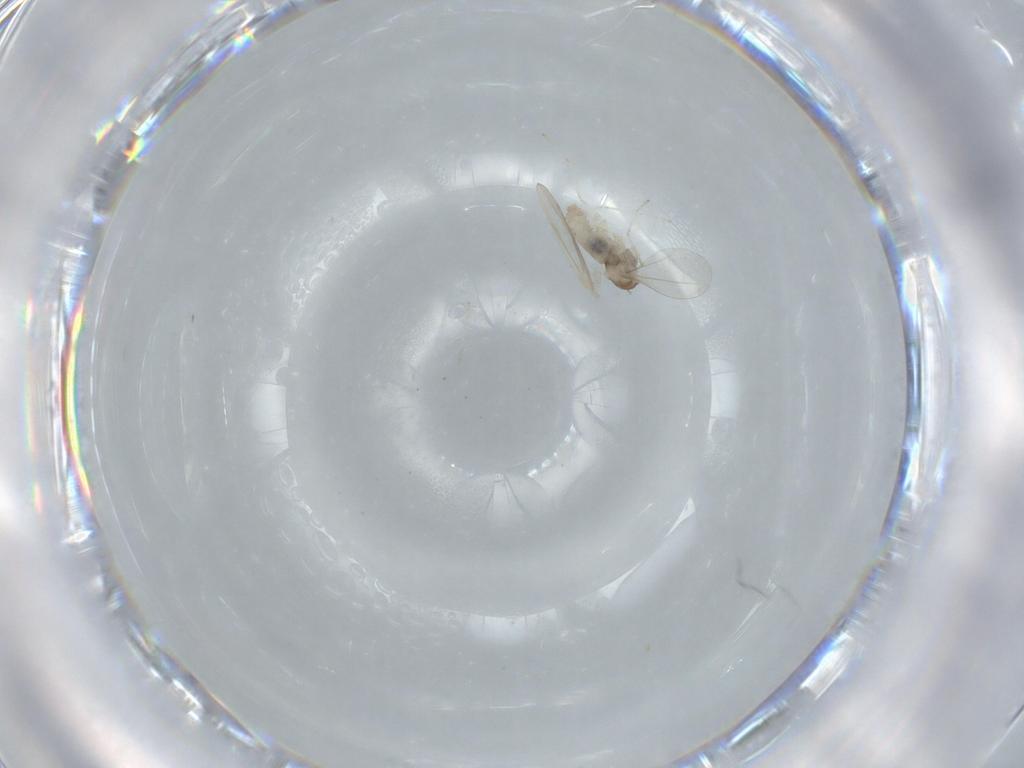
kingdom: Animalia
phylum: Arthropoda
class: Insecta
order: Diptera
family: Cecidomyiidae
